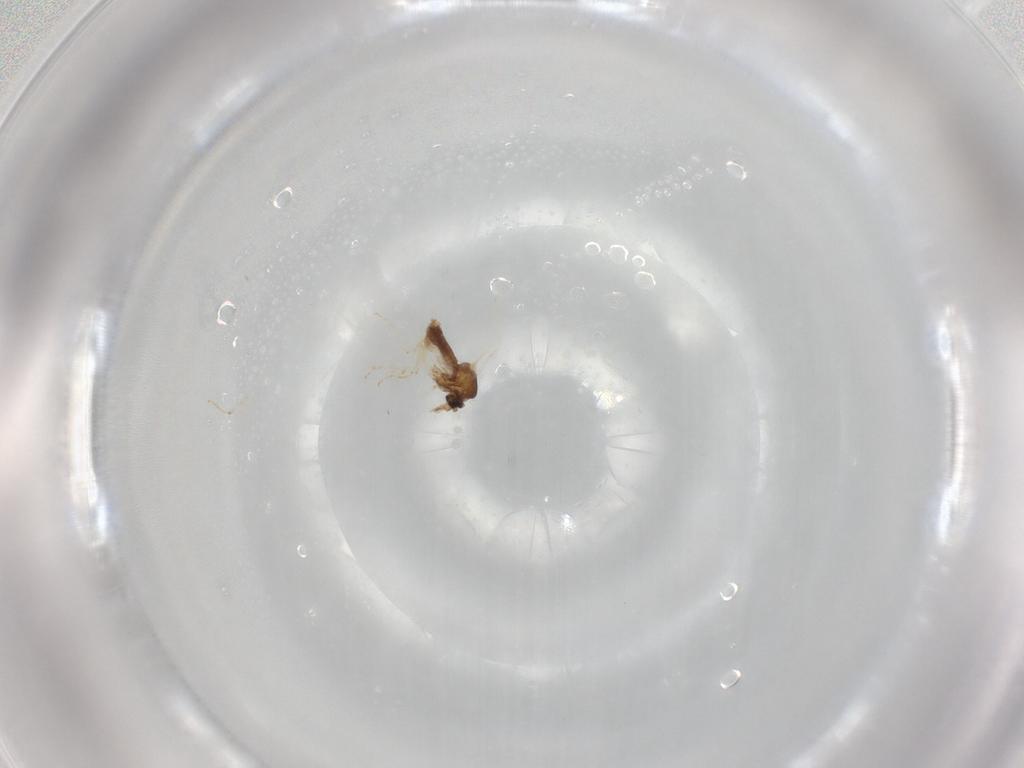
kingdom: Animalia
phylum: Arthropoda
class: Insecta
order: Diptera
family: Ceratopogonidae
